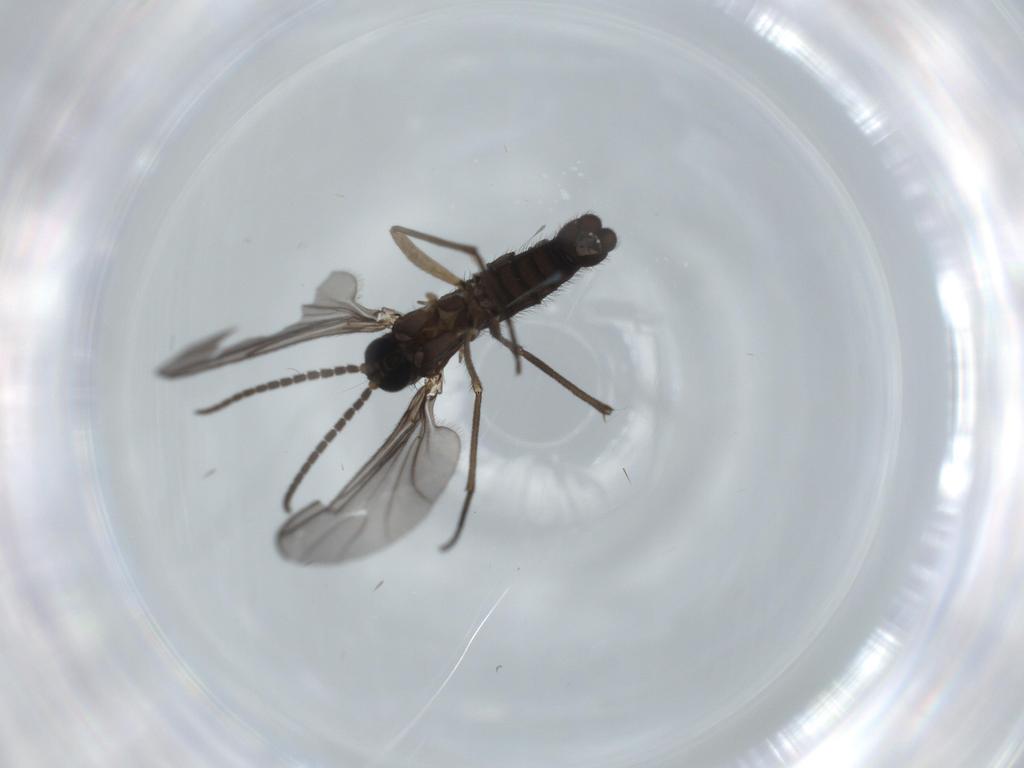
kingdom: Animalia
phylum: Arthropoda
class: Insecta
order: Diptera
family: Sciaridae
